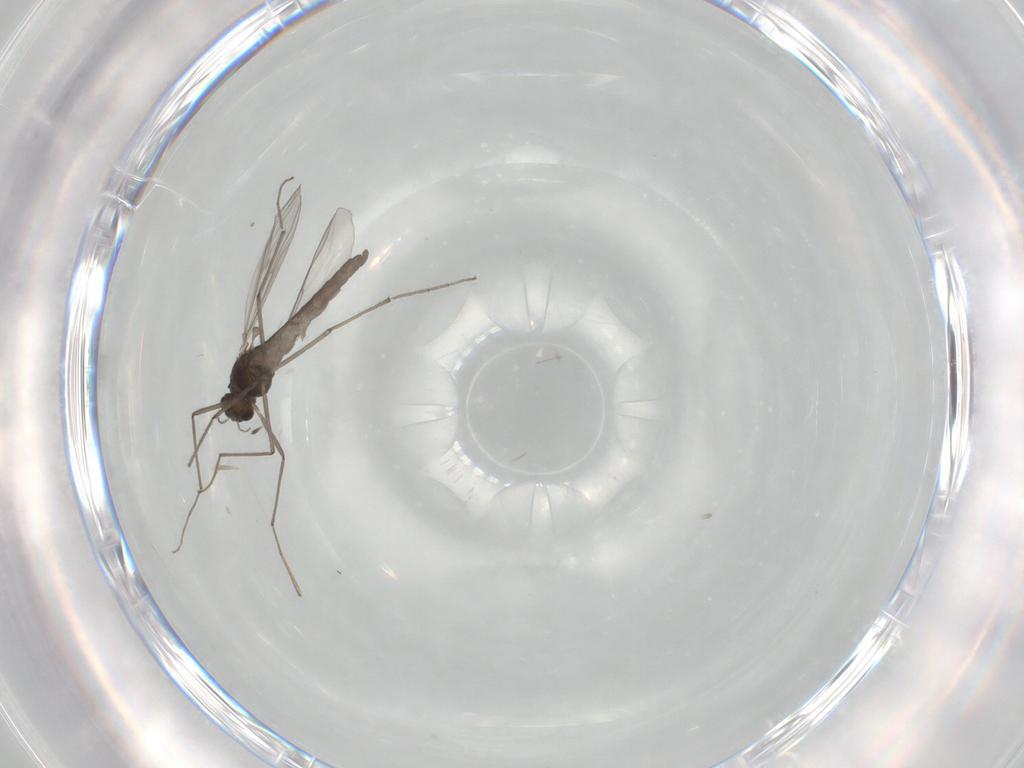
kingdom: Animalia
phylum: Arthropoda
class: Insecta
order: Diptera
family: Chironomidae
